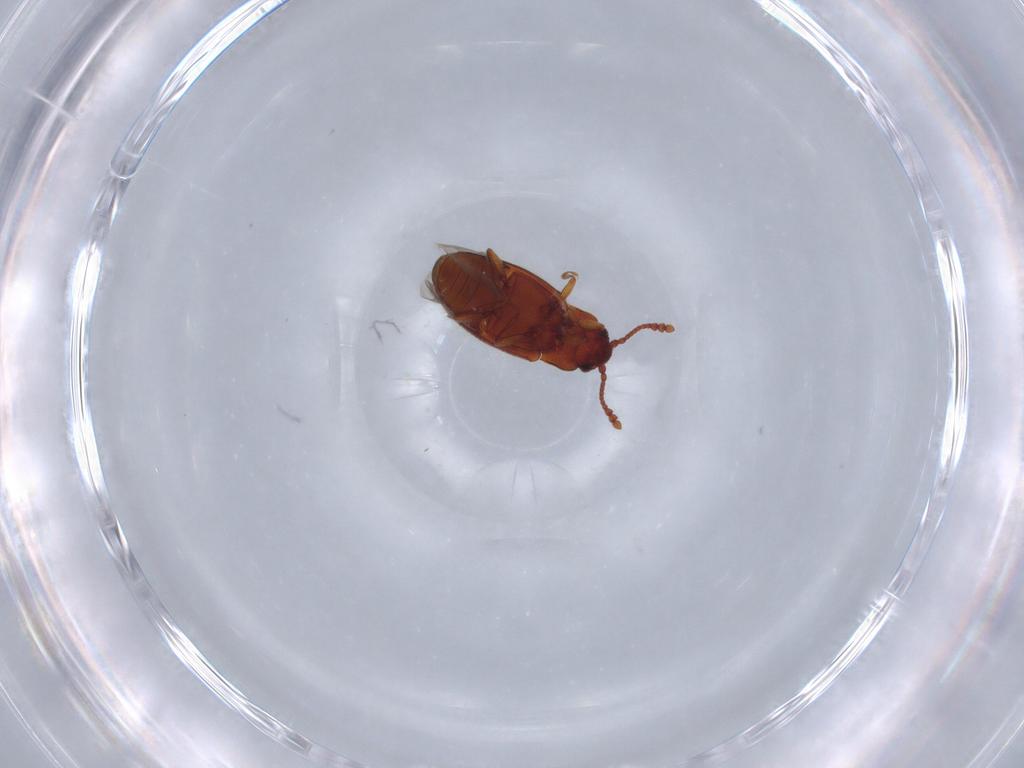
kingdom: Animalia
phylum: Arthropoda
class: Insecta
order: Coleoptera
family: Cryptophagidae
